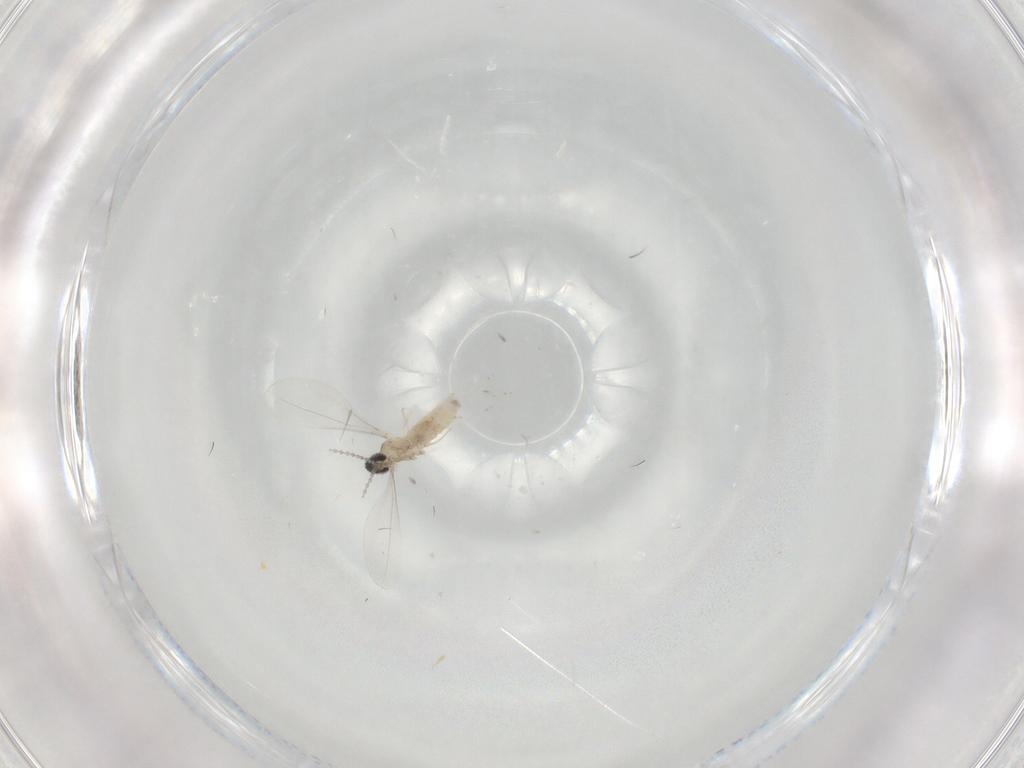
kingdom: Animalia
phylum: Arthropoda
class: Insecta
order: Diptera
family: Cecidomyiidae
